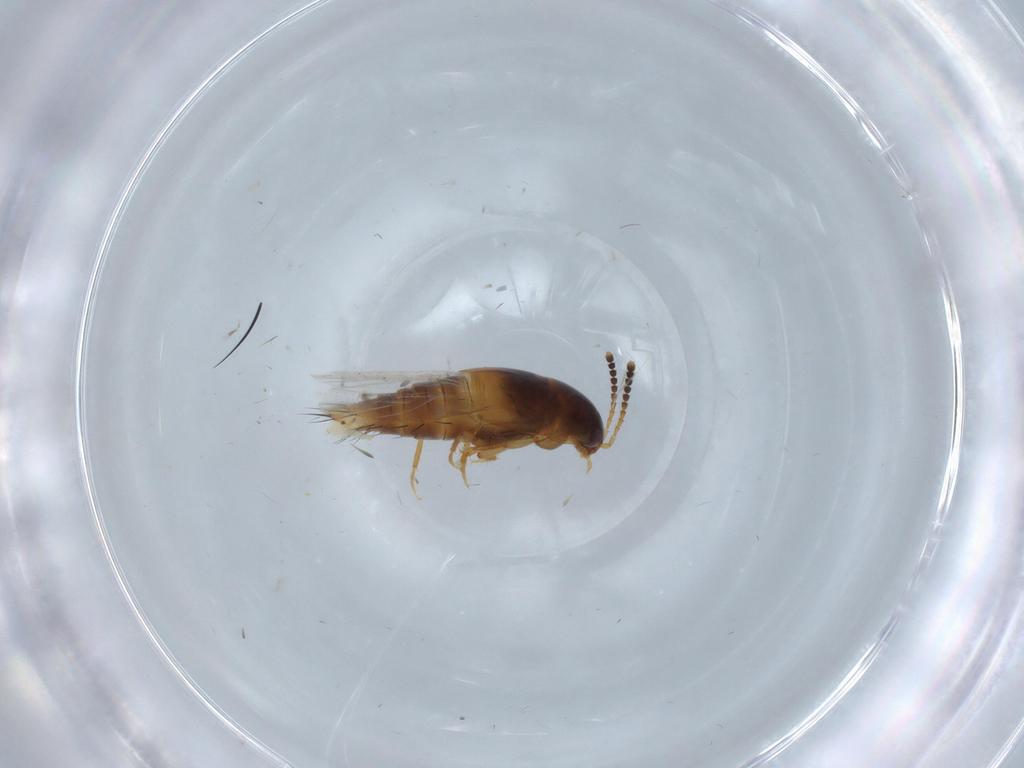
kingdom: Animalia
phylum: Arthropoda
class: Insecta
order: Coleoptera
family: Staphylinidae
